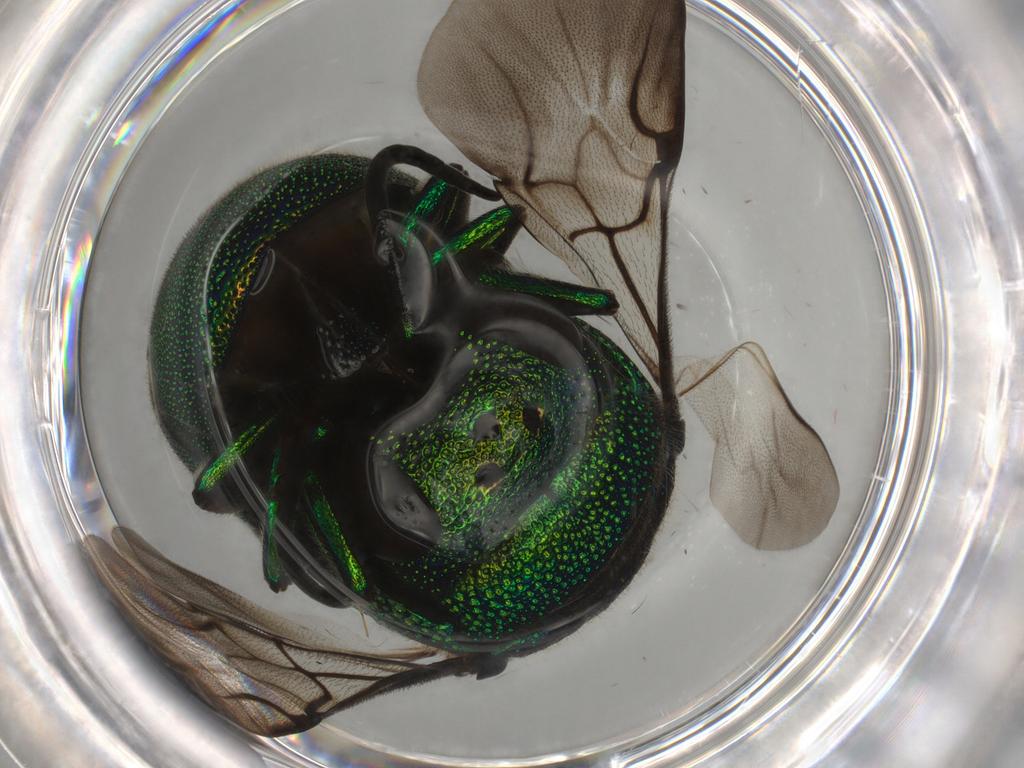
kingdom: Animalia
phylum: Arthropoda
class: Insecta
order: Hymenoptera
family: Chrysididae
